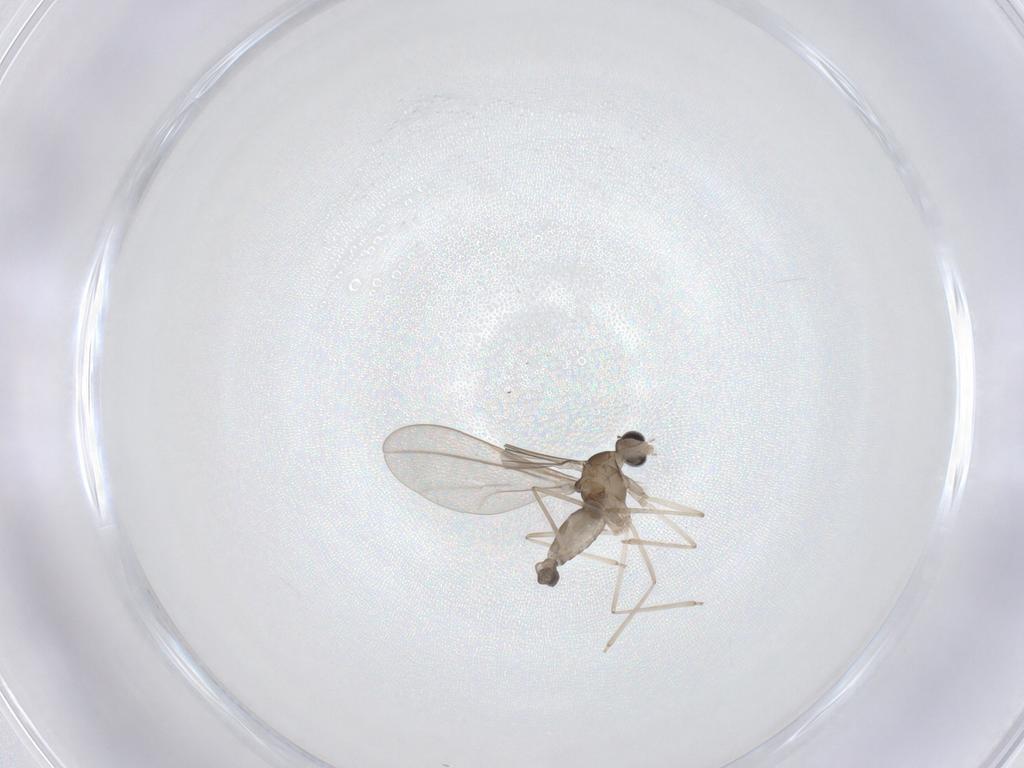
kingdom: Animalia
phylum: Arthropoda
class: Insecta
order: Diptera
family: Cecidomyiidae
